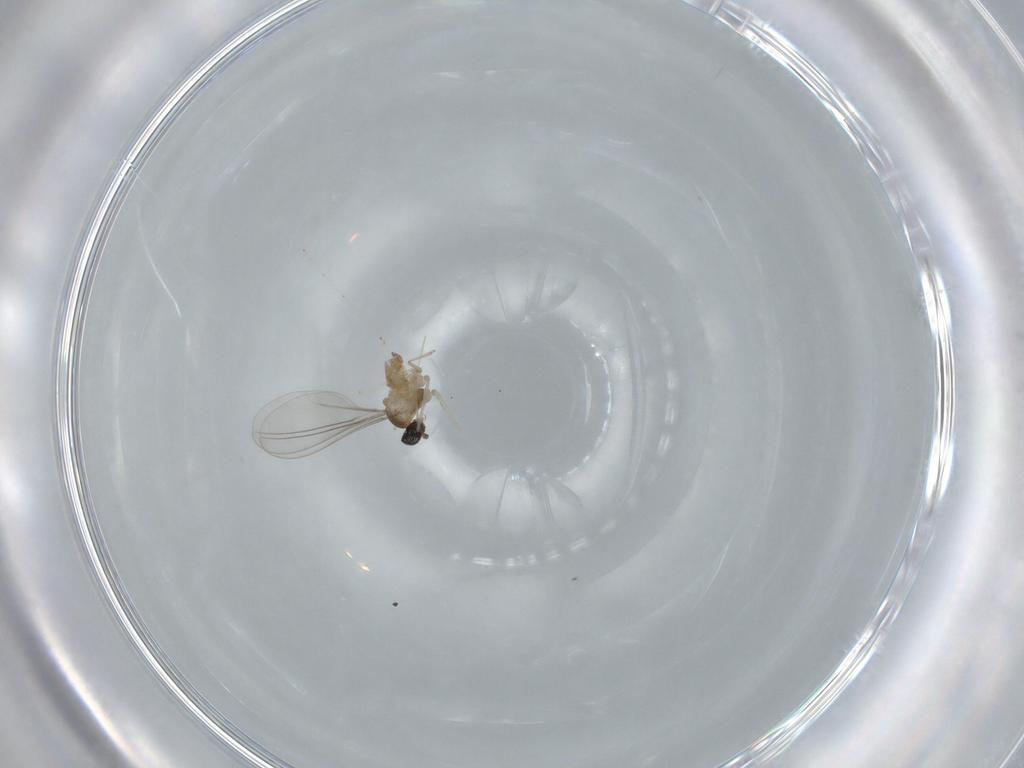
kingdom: Animalia
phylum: Arthropoda
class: Insecta
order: Diptera
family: Cecidomyiidae
